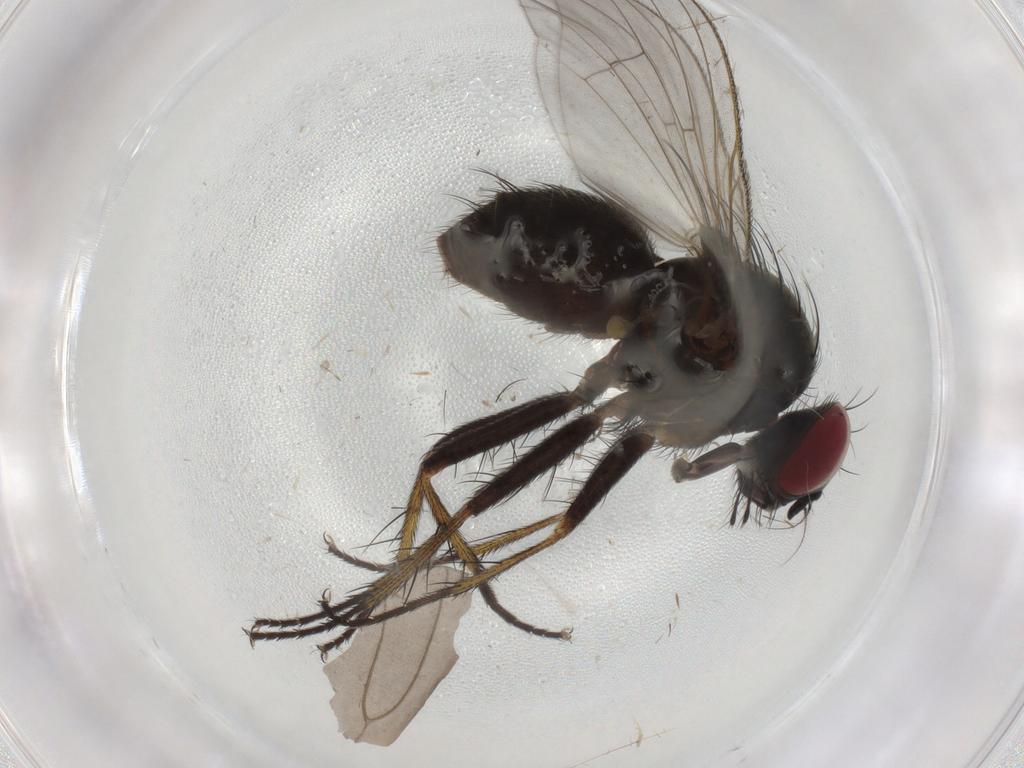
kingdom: Animalia
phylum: Arthropoda
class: Insecta
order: Diptera
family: Muscidae
